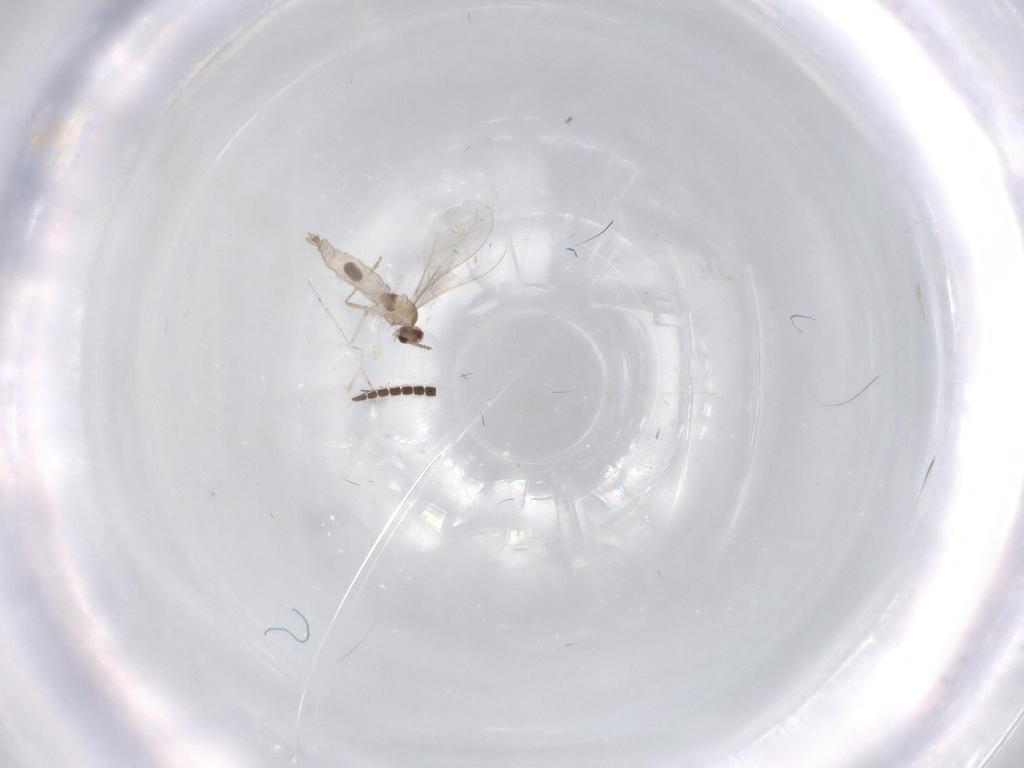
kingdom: Animalia
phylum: Arthropoda
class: Insecta
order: Diptera
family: Cecidomyiidae
